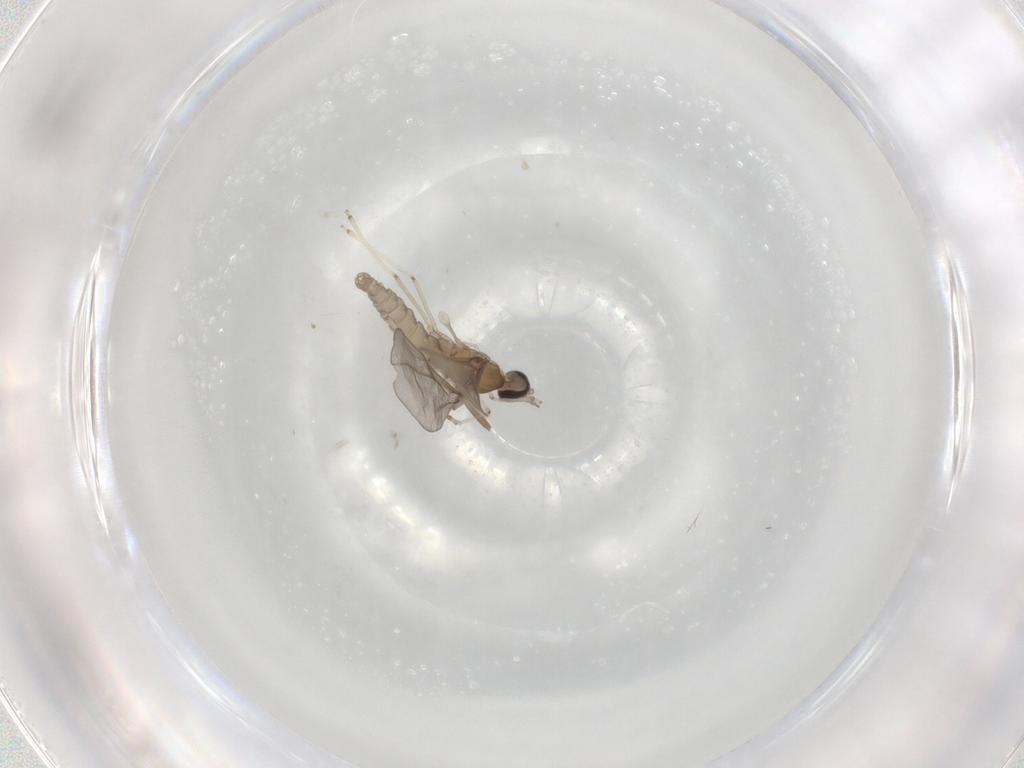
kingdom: Animalia
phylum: Arthropoda
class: Insecta
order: Diptera
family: Cecidomyiidae
